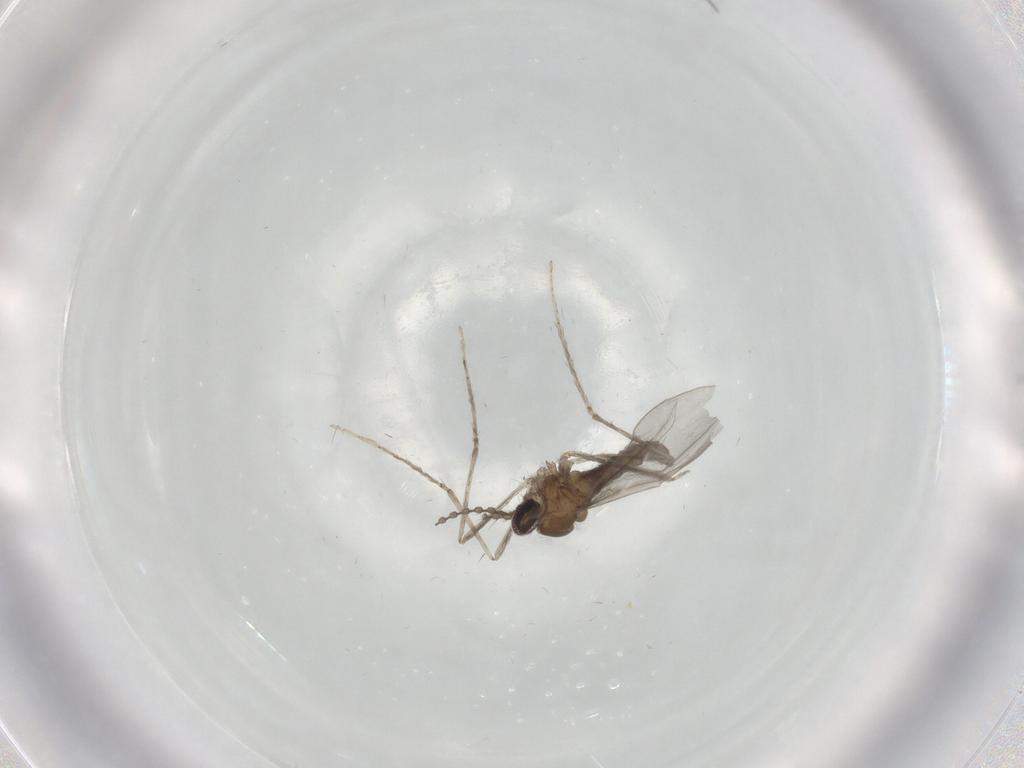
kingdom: Animalia
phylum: Arthropoda
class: Insecta
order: Diptera
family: Cecidomyiidae
